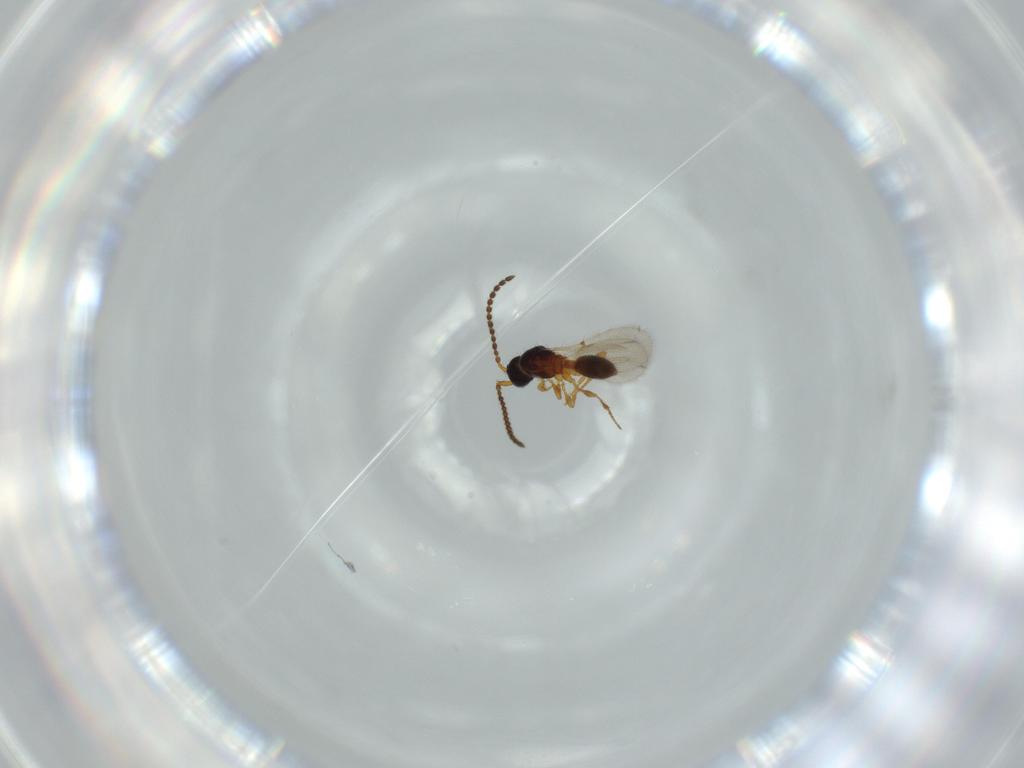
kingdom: Animalia
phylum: Arthropoda
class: Insecta
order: Hymenoptera
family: Diapriidae
